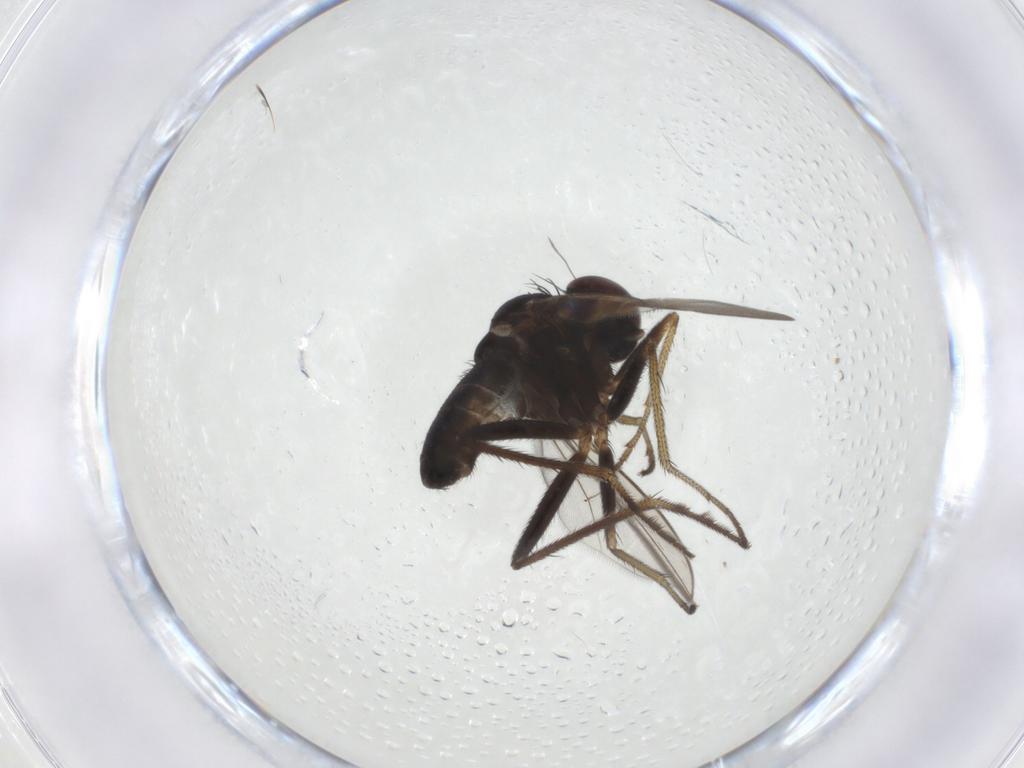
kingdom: Animalia
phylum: Arthropoda
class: Insecta
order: Diptera
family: Dolichopodidae
